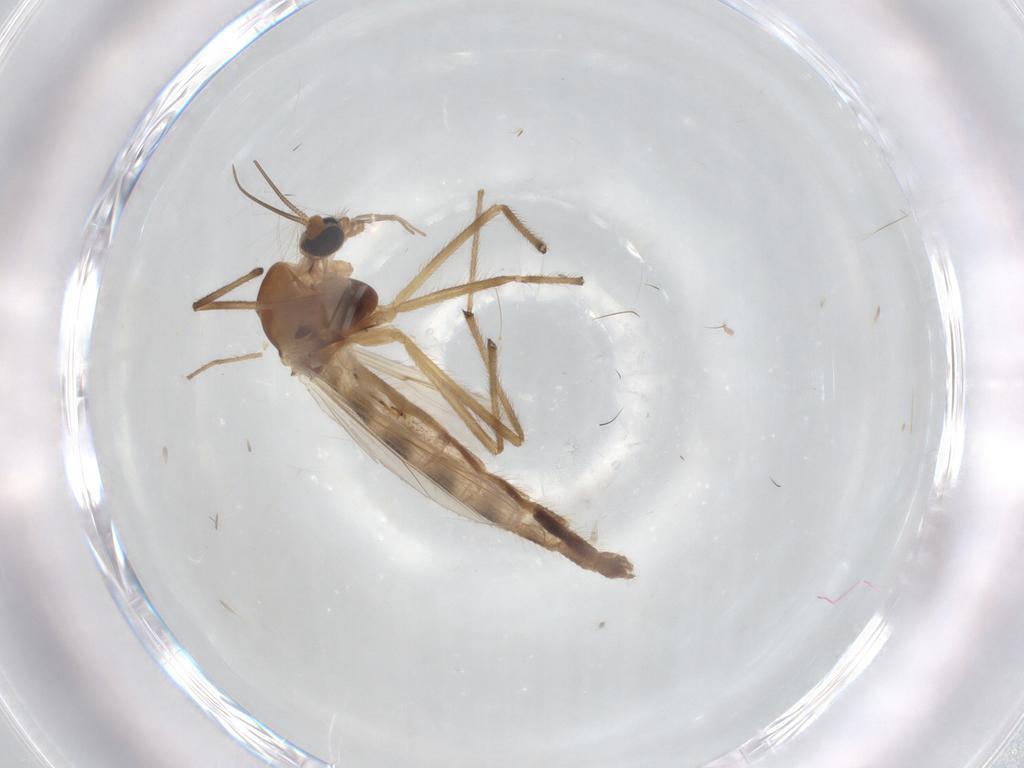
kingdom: Animalia
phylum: Arthropoda
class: Insecta
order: Diptera
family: Chironomidae
